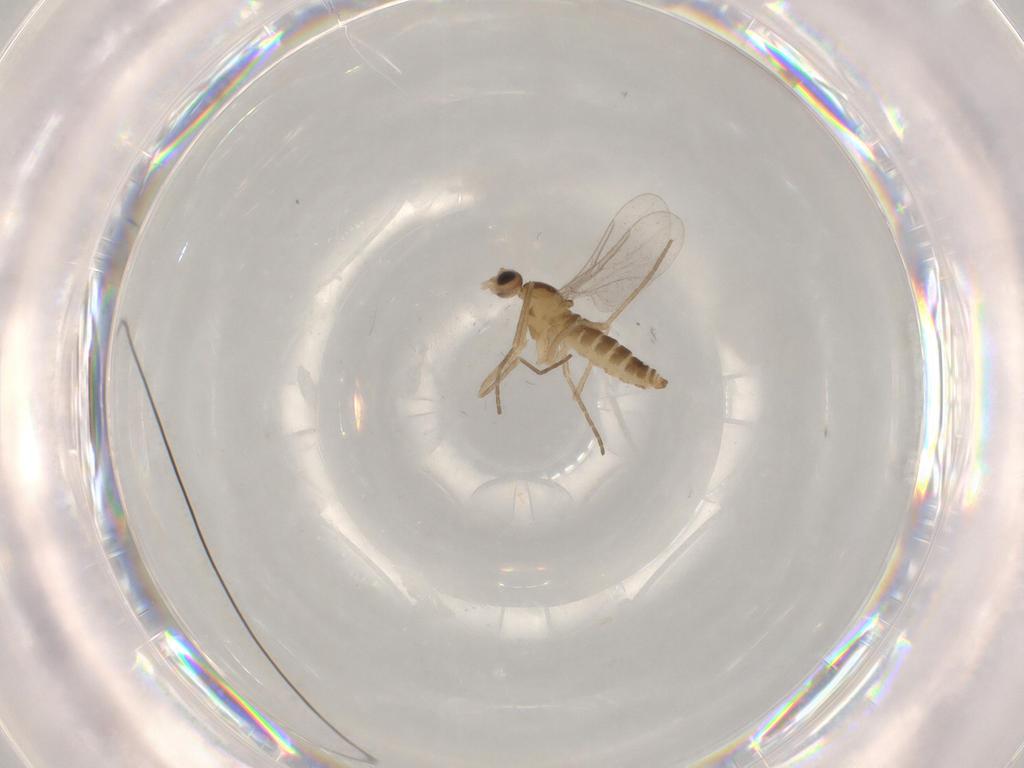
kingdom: Animalia
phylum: Arthropoda
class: Insecta
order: Diptera
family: Cecidomyiidae
